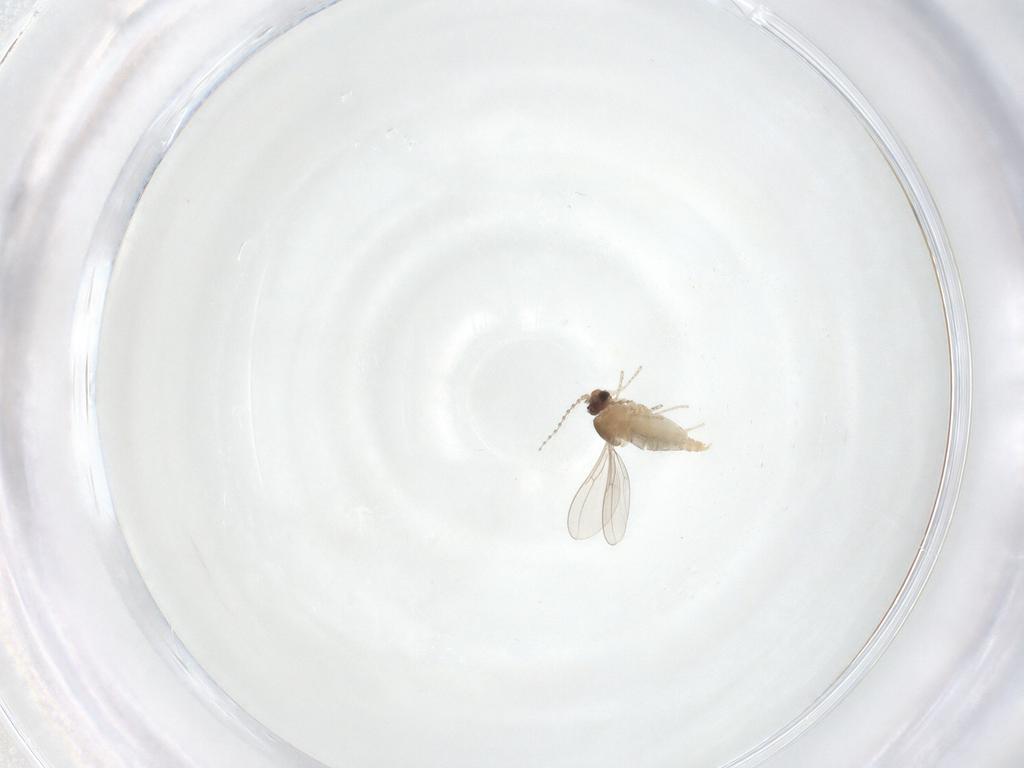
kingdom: Animalia
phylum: Arthropoda
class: Insecta
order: Diptera
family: Cecidomyiidae
